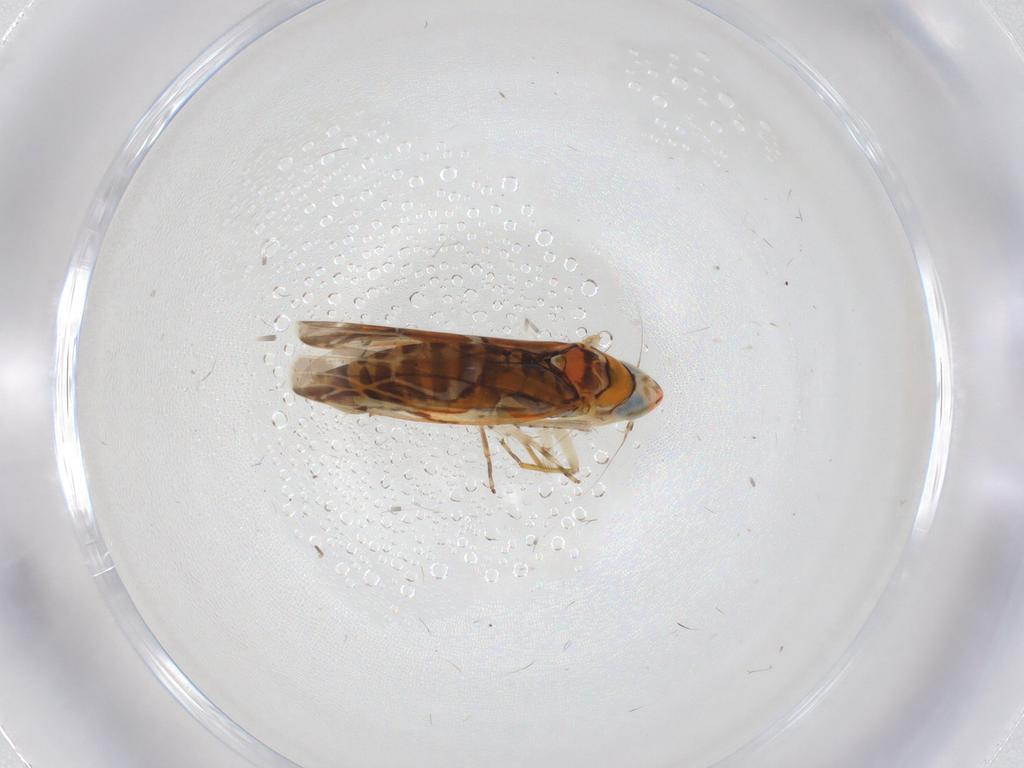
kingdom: Animalia
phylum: Arthropoda
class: Insecta
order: Hemiptera
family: Cicadellidae
